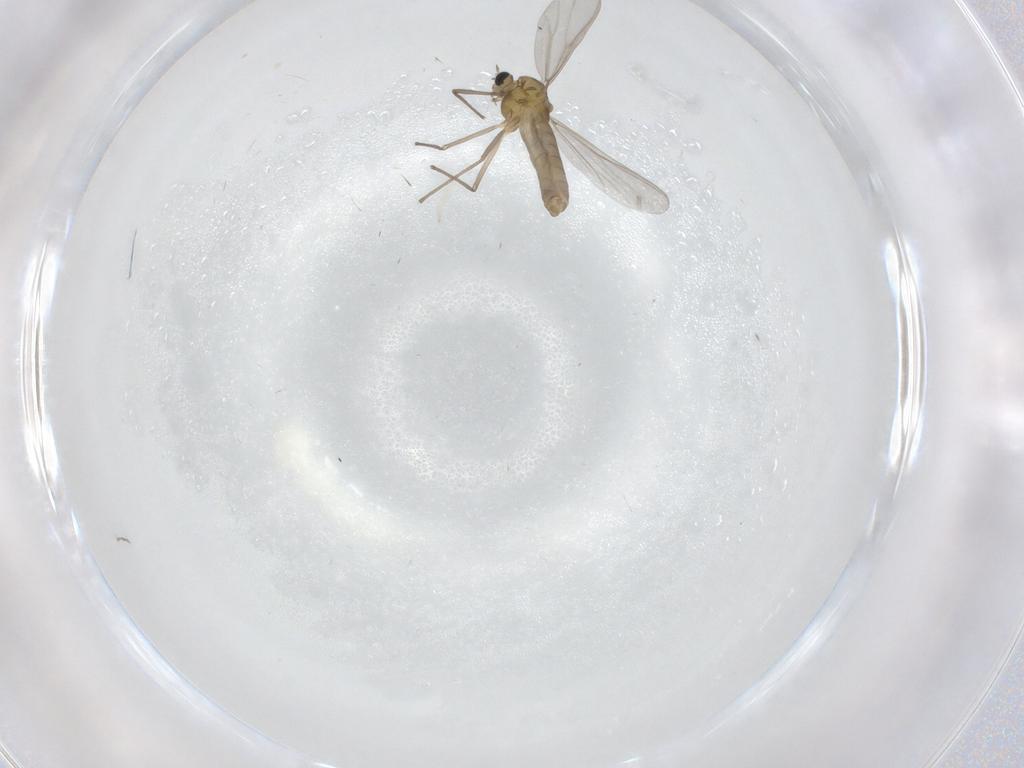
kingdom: Animalia
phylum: Arthropoda
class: Insecta
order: Diptera
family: Chironomidae
